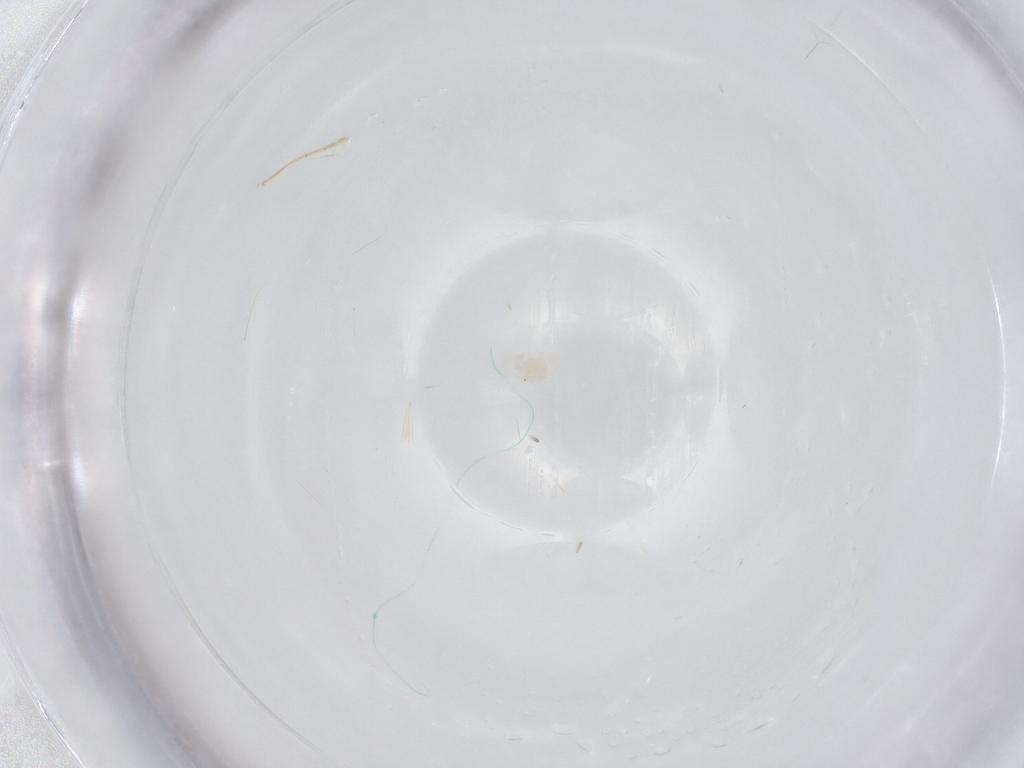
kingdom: Animalia
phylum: Arthropoda
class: Arachnida
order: Trombidiformes
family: Anystidae
